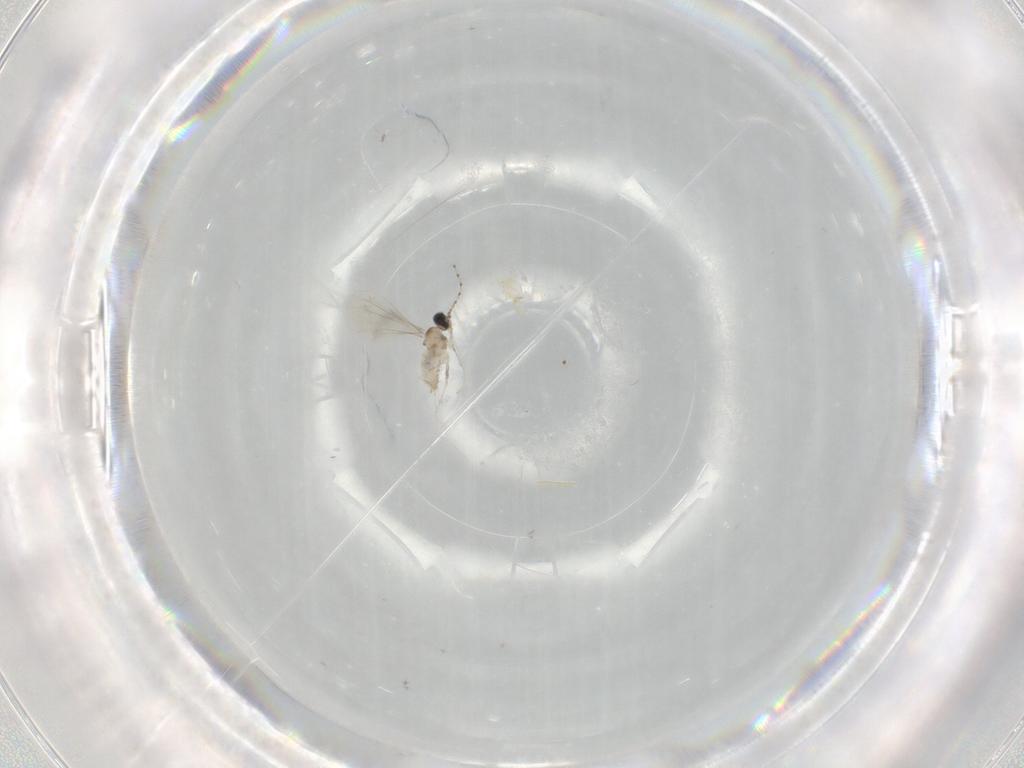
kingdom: Animalia
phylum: Arthropoda
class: Insecta
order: Diptera
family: Cecidomyiidae
